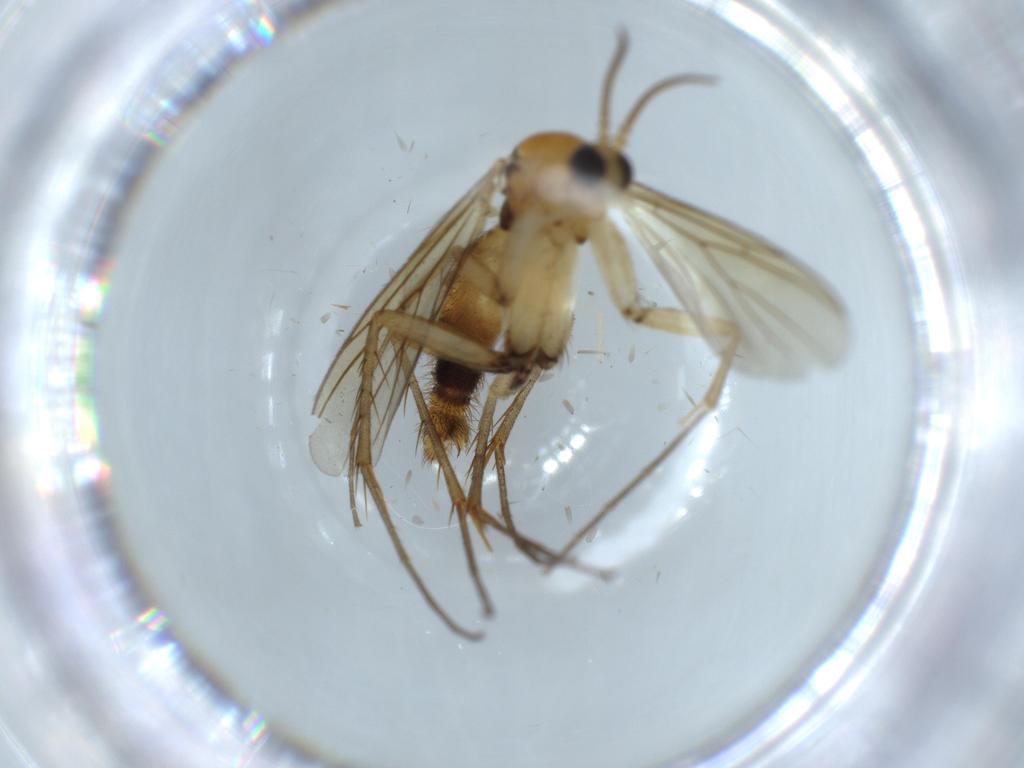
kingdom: Animalia
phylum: Arthropoda
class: Insecta
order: Diptera
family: Mycetophilidae
